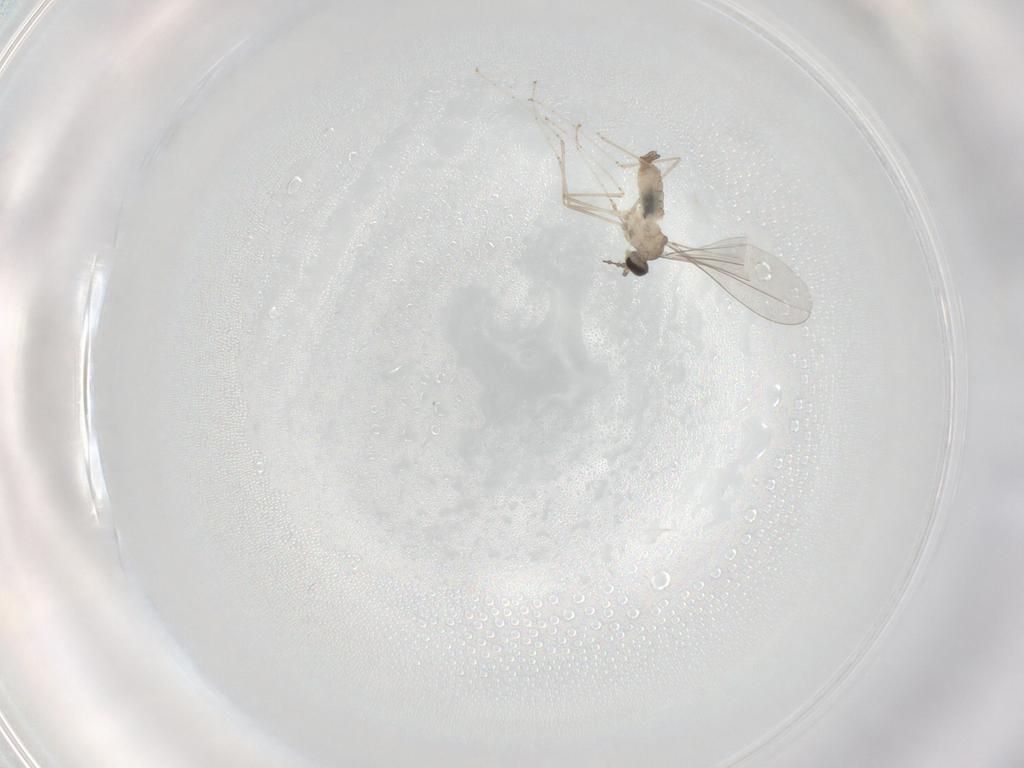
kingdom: Animalia
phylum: Arthropoda
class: Insecta
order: Diptera
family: Cecidomyiidae
